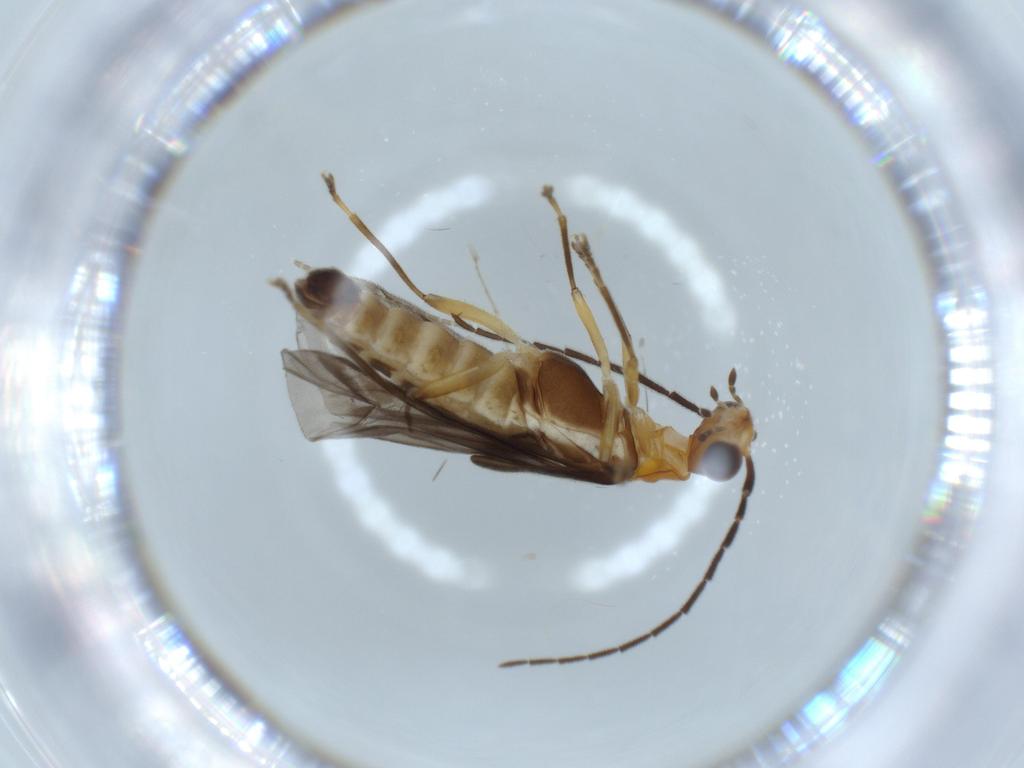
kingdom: Animalia
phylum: Arthropoda
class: Insecta
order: Coleoptera
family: Cantharidae
